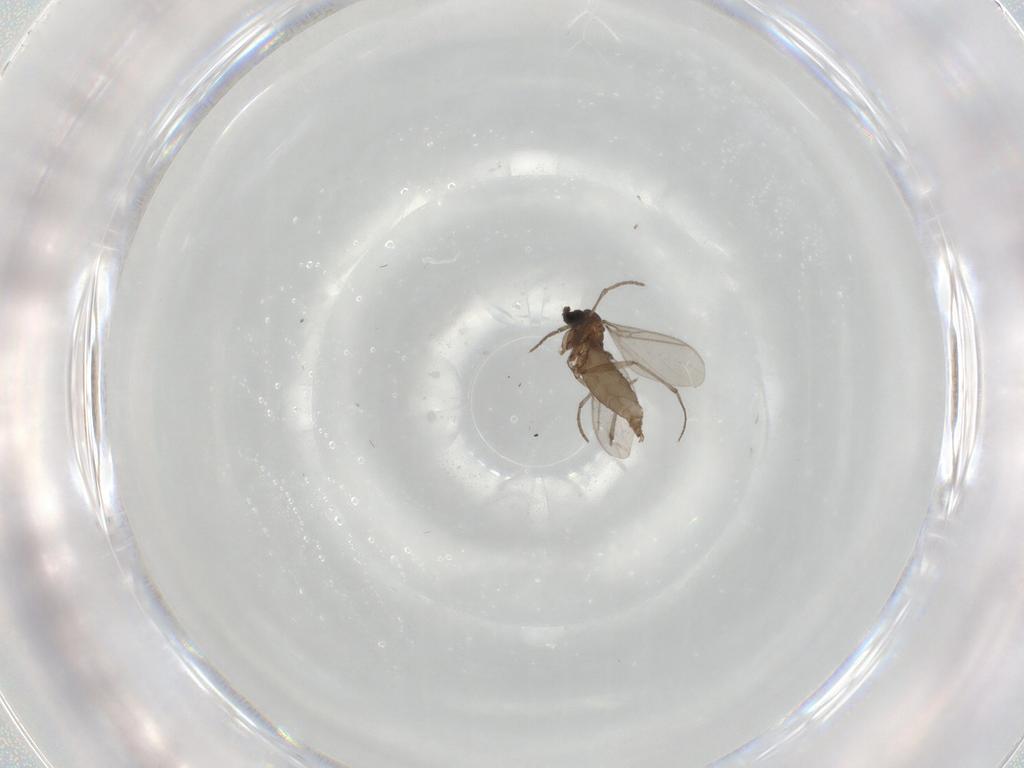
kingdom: Animalia
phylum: Arthropoda
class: Insecta
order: Diptera
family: Sciaridae
